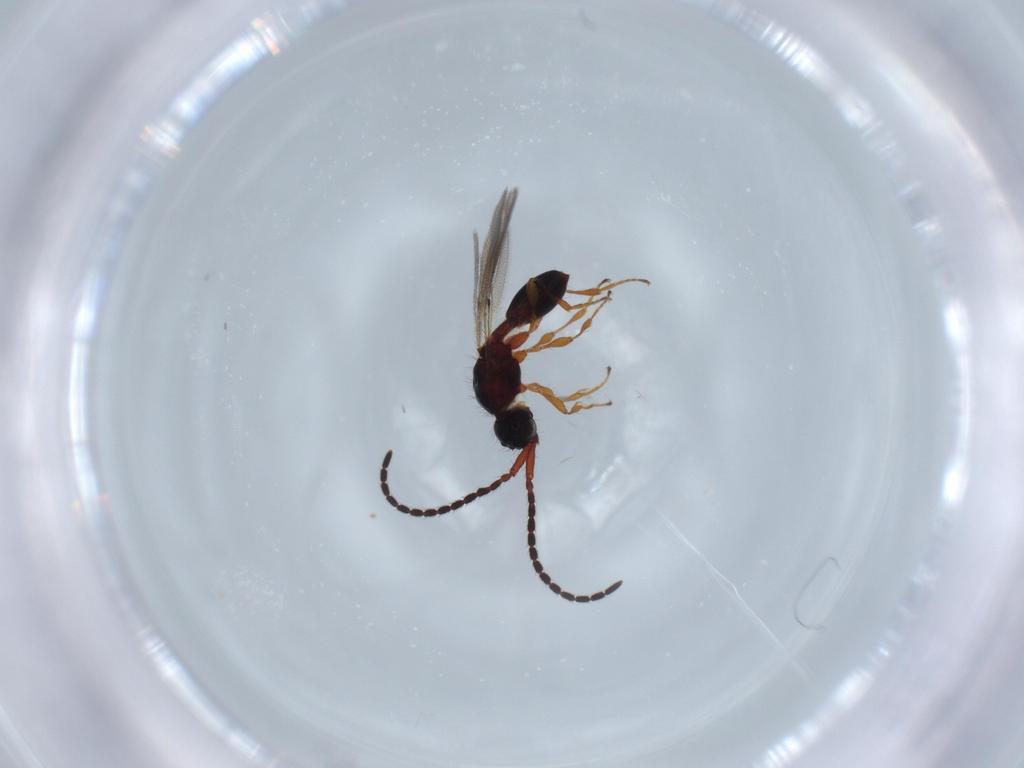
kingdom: Animalia
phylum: Arthropoda
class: Insecta
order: Hymenoptera
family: Diapriidae
